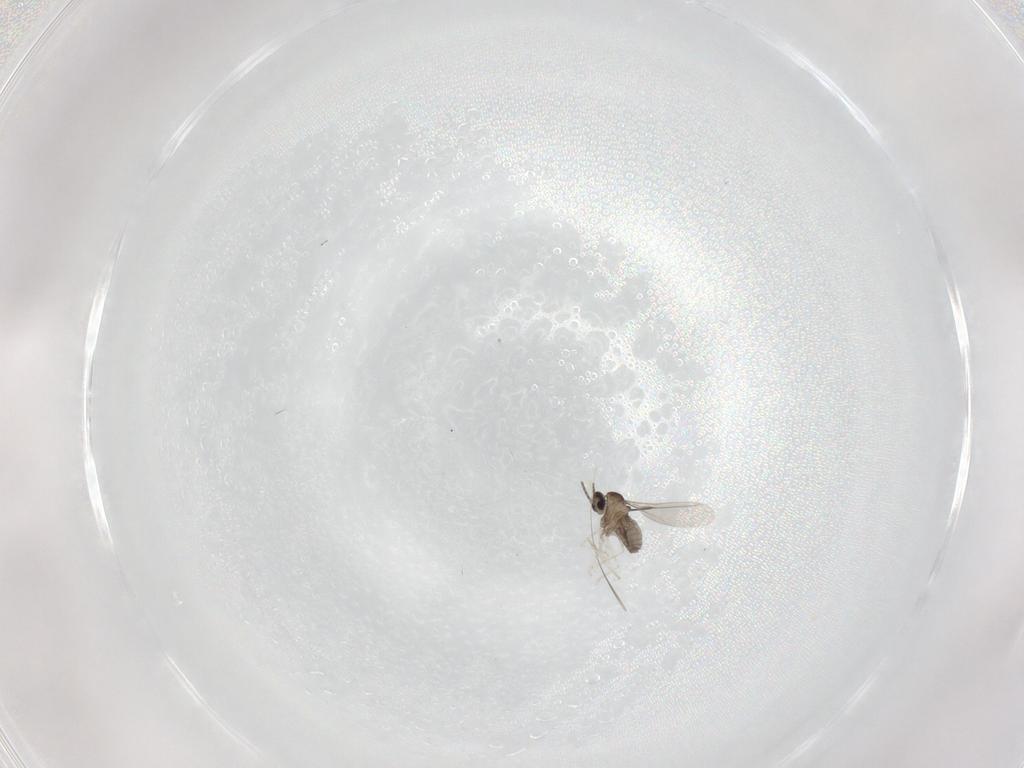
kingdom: Animalia
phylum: Arthropoda
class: Insecta
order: Diptera
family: Cecidomyiidae
